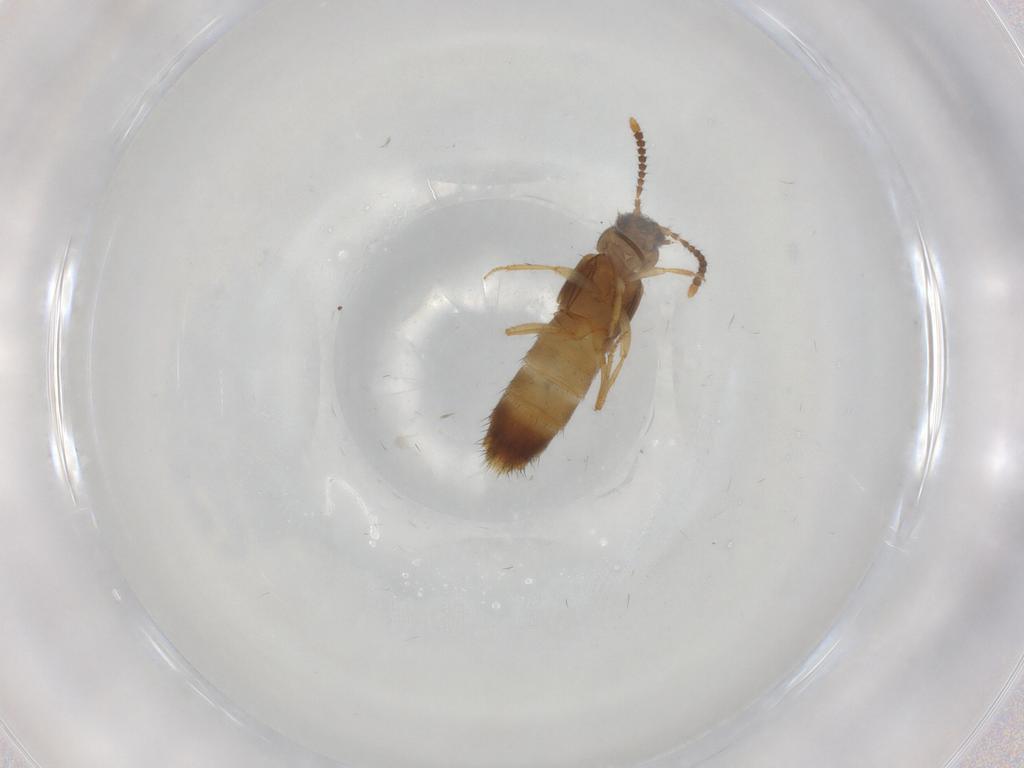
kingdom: Animalia
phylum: Arthropoda
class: Insecta
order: Coleoptera
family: Staphylinidae
